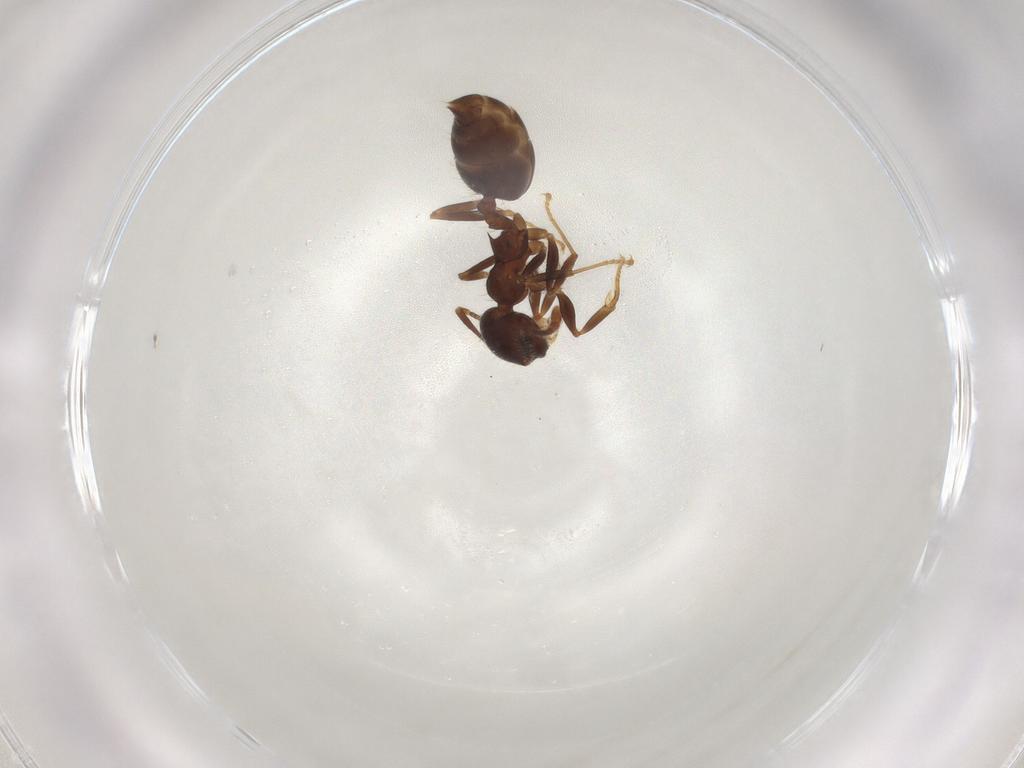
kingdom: Animalia
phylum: Arthropoda
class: Insecta
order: Hymenoptera
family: Formicidae
